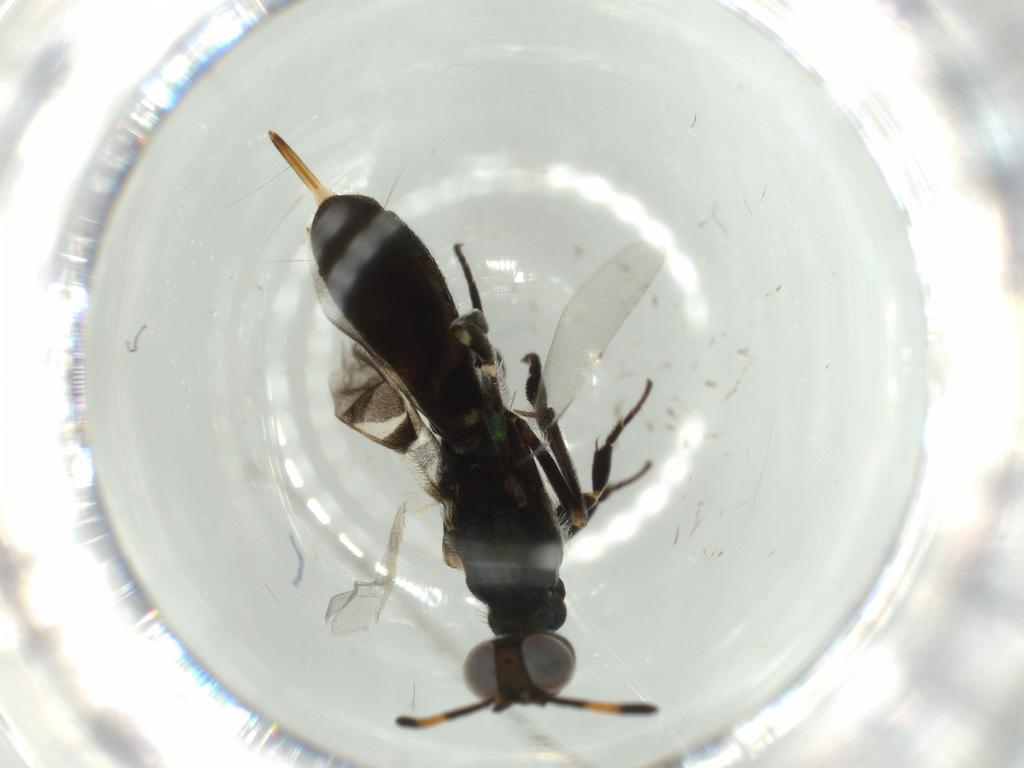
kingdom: Animalia
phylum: Arthropoda
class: Insecta
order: Hymenoptera
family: Eupelmidae
